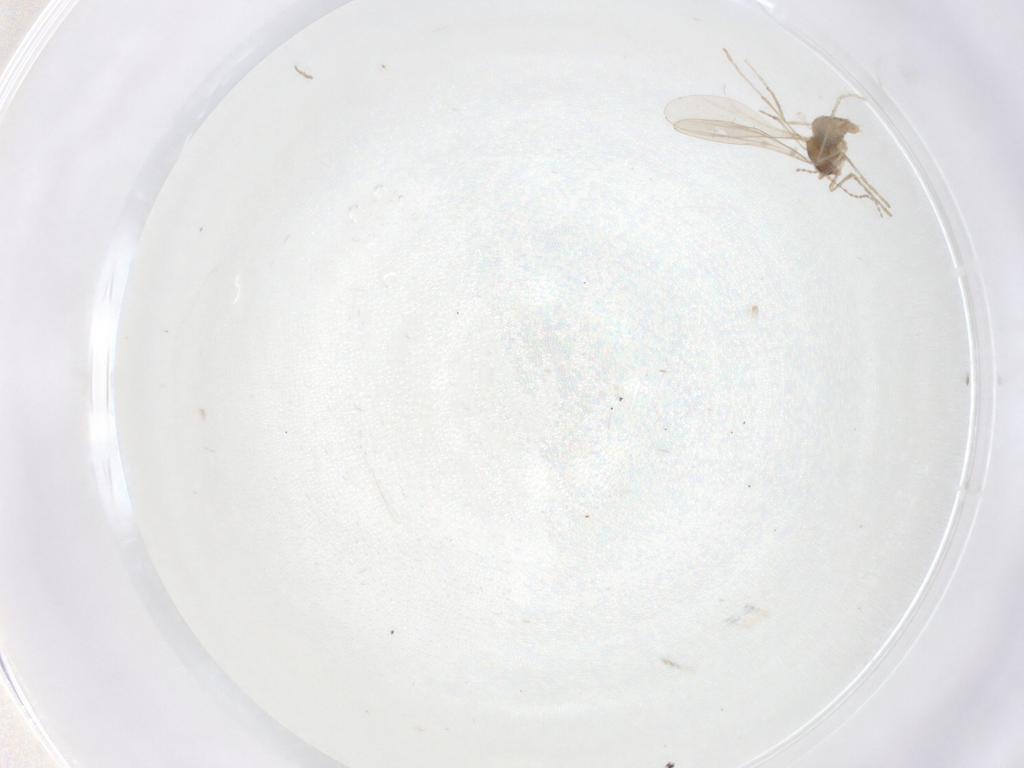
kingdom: Animalia
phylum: Arthropoda
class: Insecta
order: Diptera
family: Cecidomyiidae
